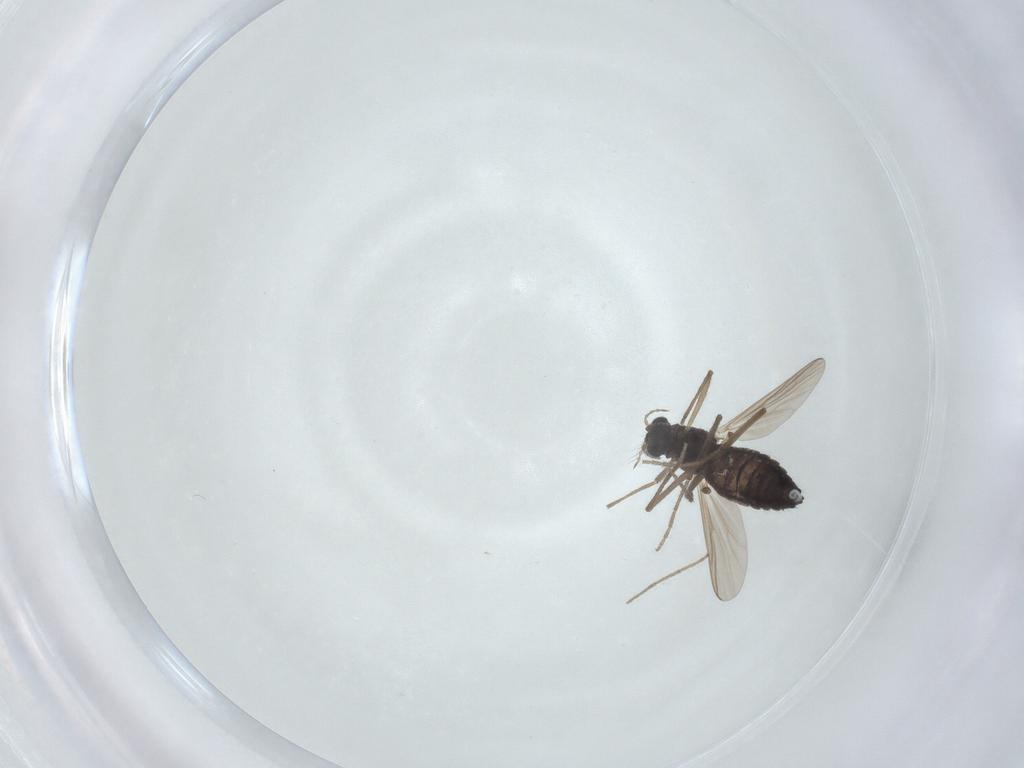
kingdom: Animalia
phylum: Arthropoda
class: Insecta
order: Diptera
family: Chironomidae
